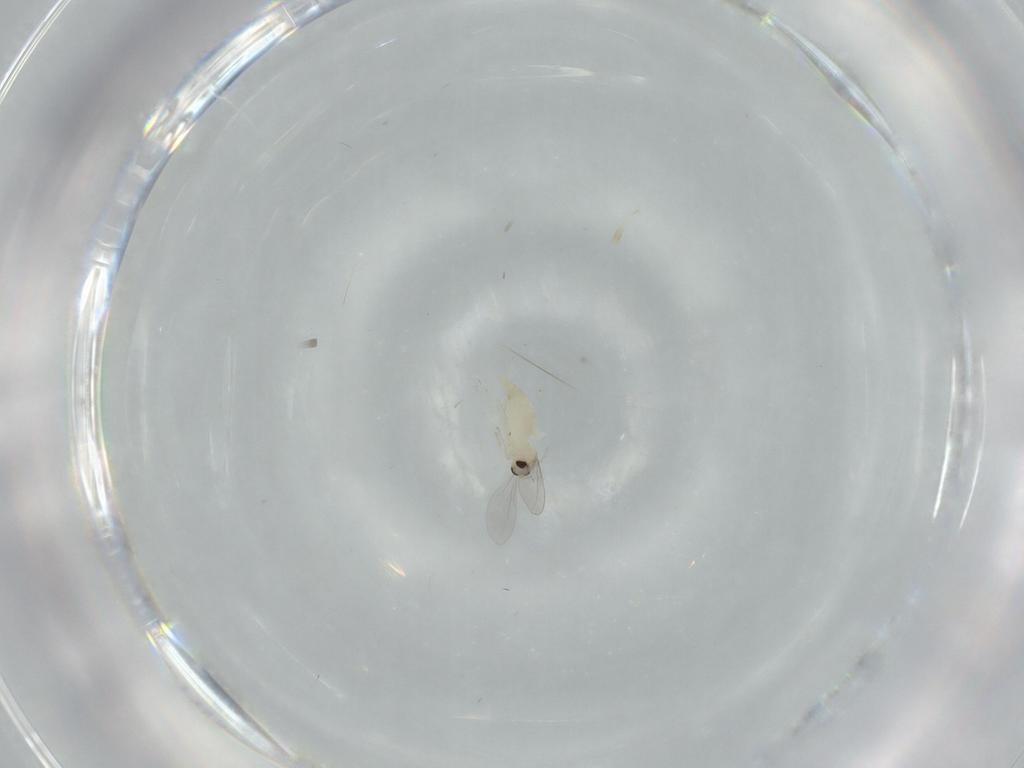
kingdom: Animalia
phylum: Arthropoda
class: Insecta
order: Diptera
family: Cecidomyiidae
